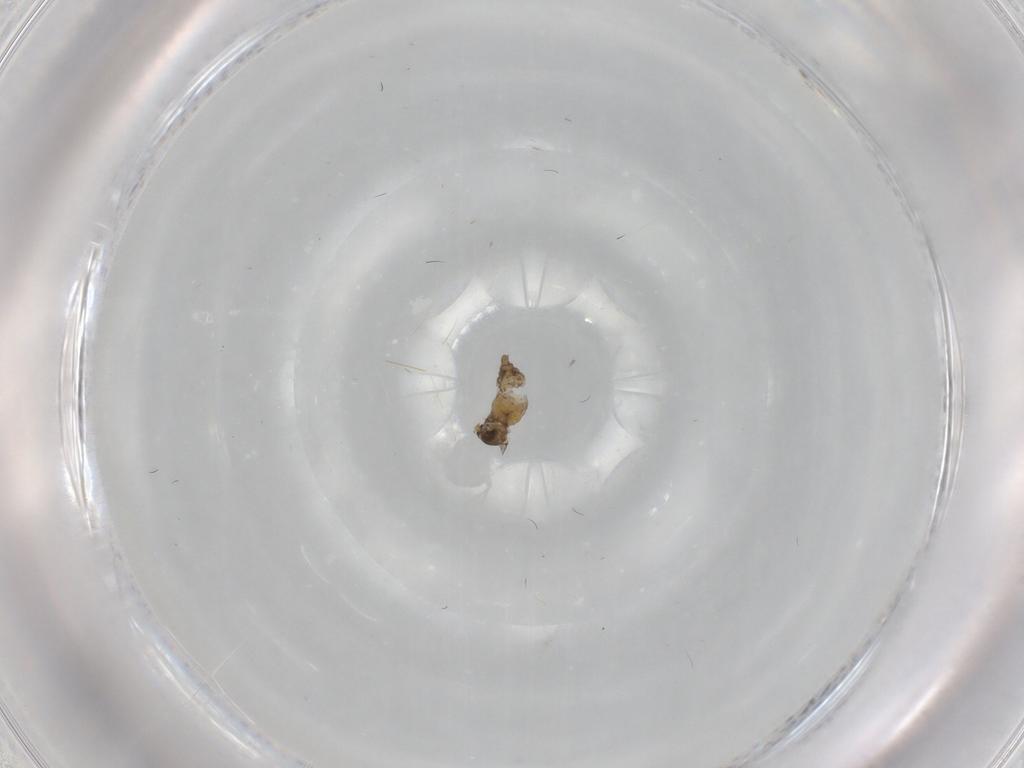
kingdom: Animalia
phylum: Arthropoda
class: Insecta
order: Diptera
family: Cecidomyiidae
